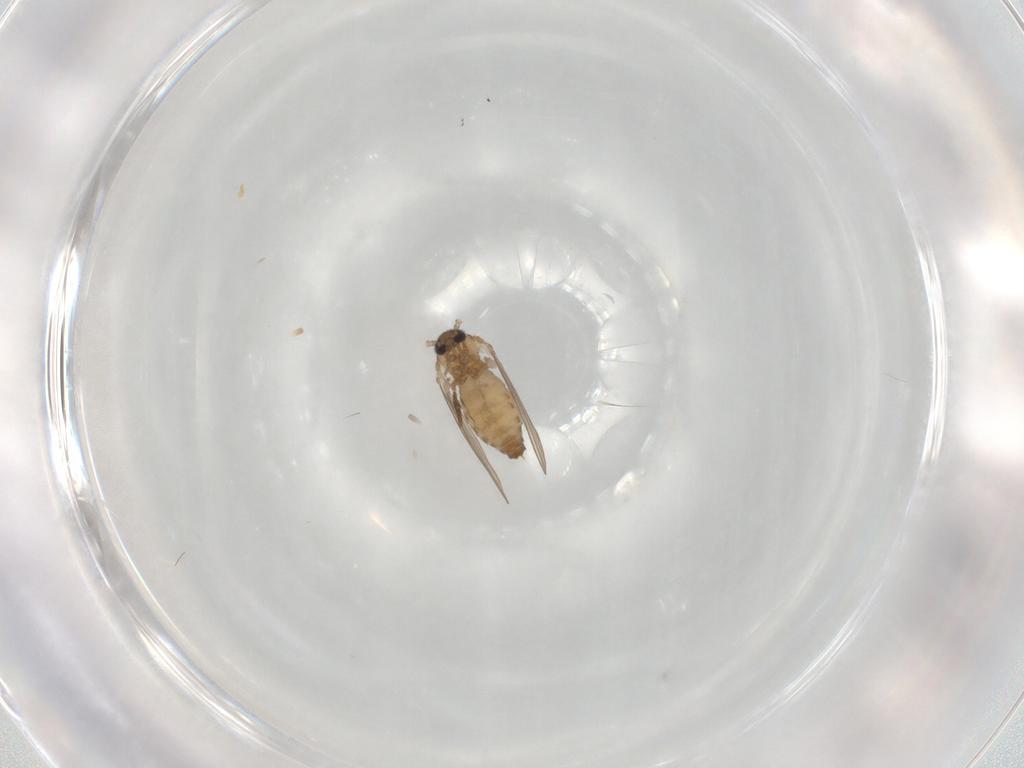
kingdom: Animalia
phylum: Arthropoda
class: Insecta
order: Diptera
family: Psychodidae
